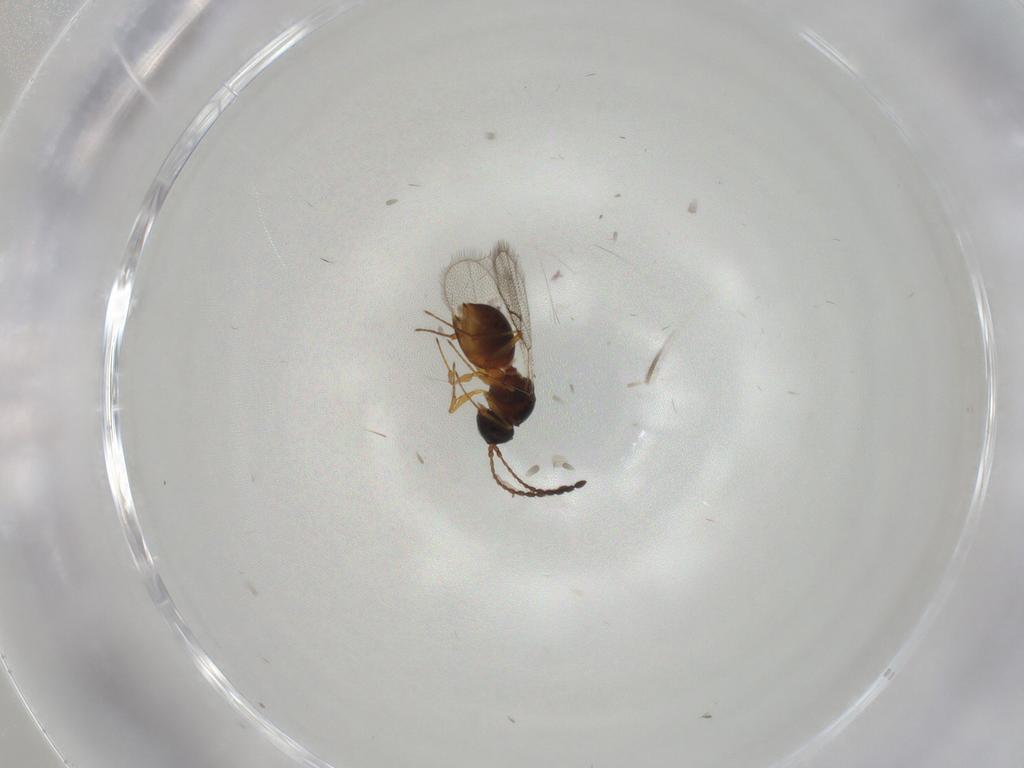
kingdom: Animalia
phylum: Arthropoda
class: Insecta
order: Hymenoptera
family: Figitidae
